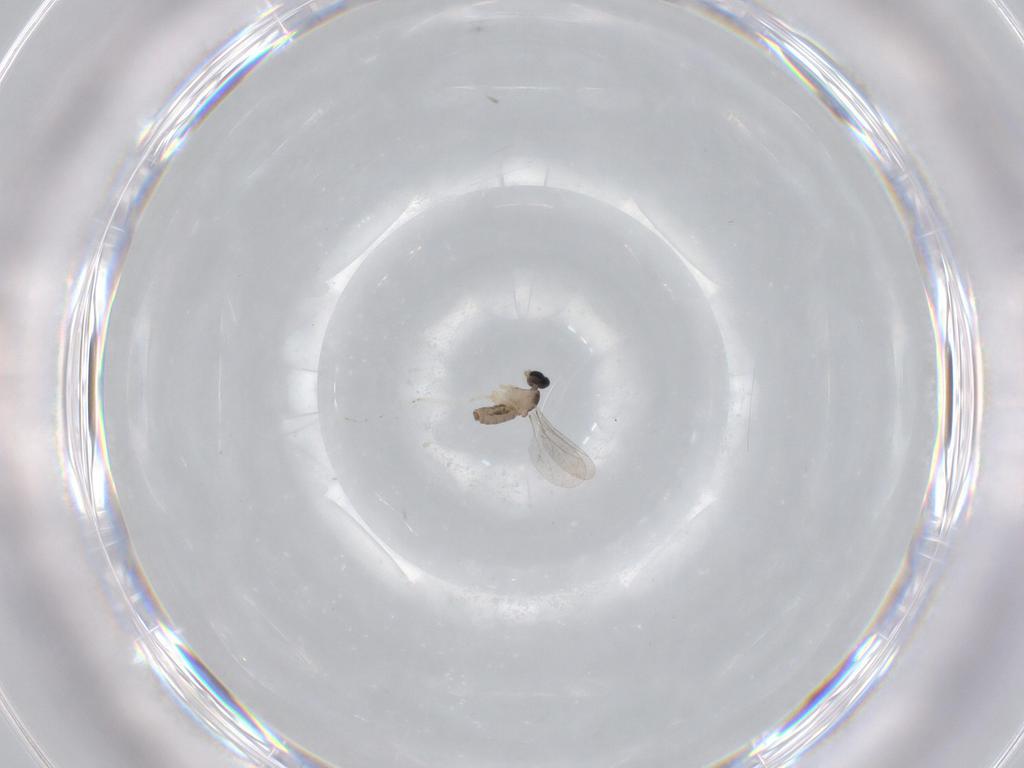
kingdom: Animalia
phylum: Arthropoda
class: Insecta
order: Diptera
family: Cecidomyiidae
